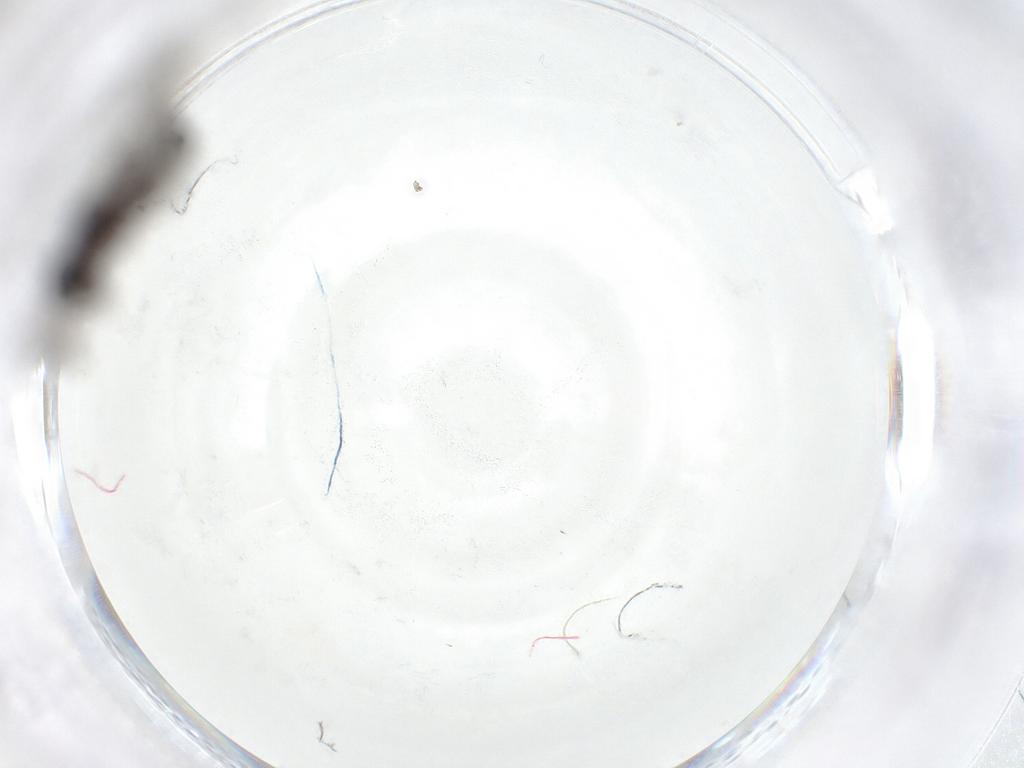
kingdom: Animalia
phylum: Arthropoda
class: Insecta
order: Hymenoptera
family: Formicidae
